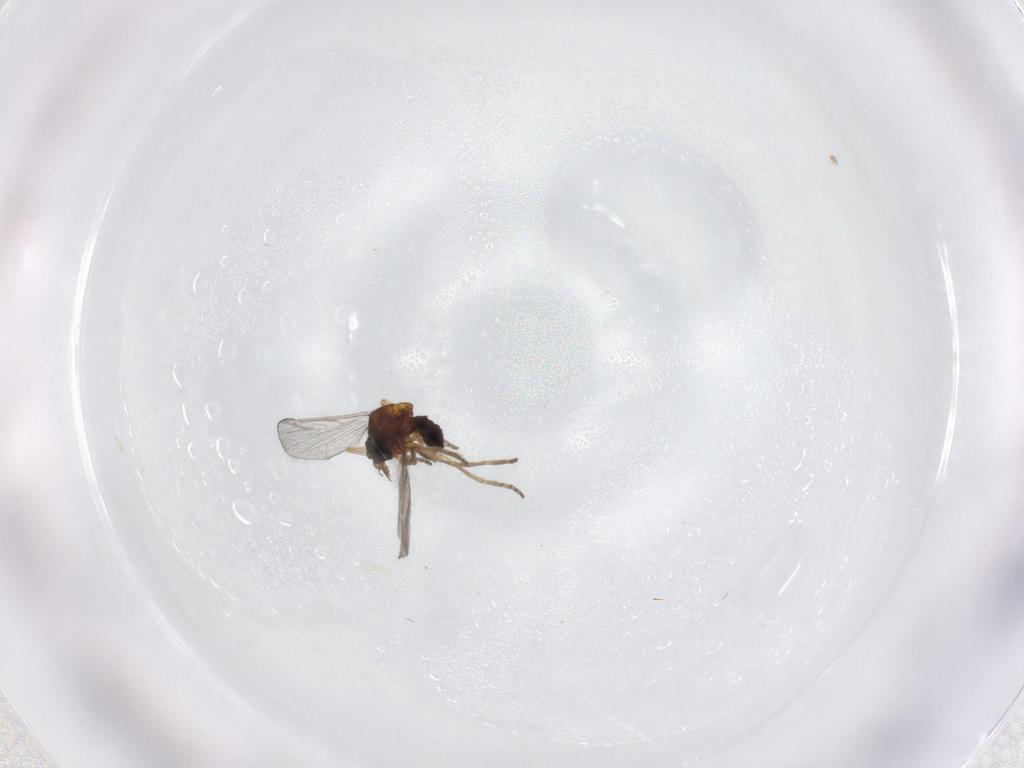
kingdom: Animalia
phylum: Arthropoda
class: Insecta
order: Diptera
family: Ceratopogonidae
